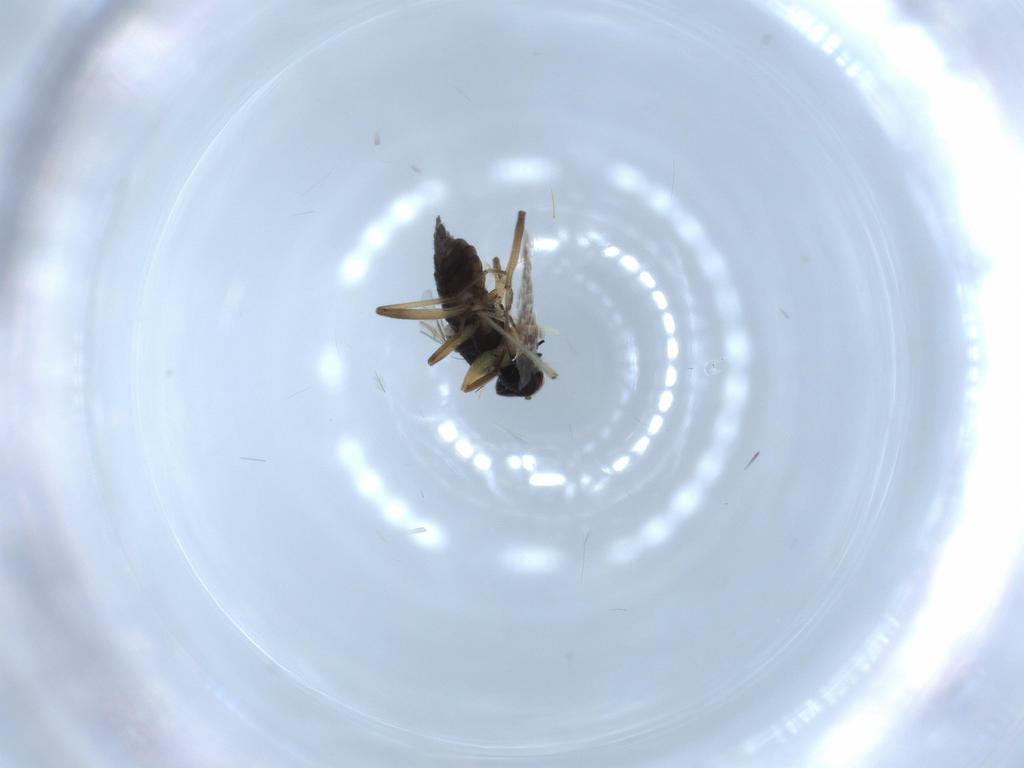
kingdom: Animalia
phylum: Arthropoda
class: Insecta
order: Diptera
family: Hybotidae
